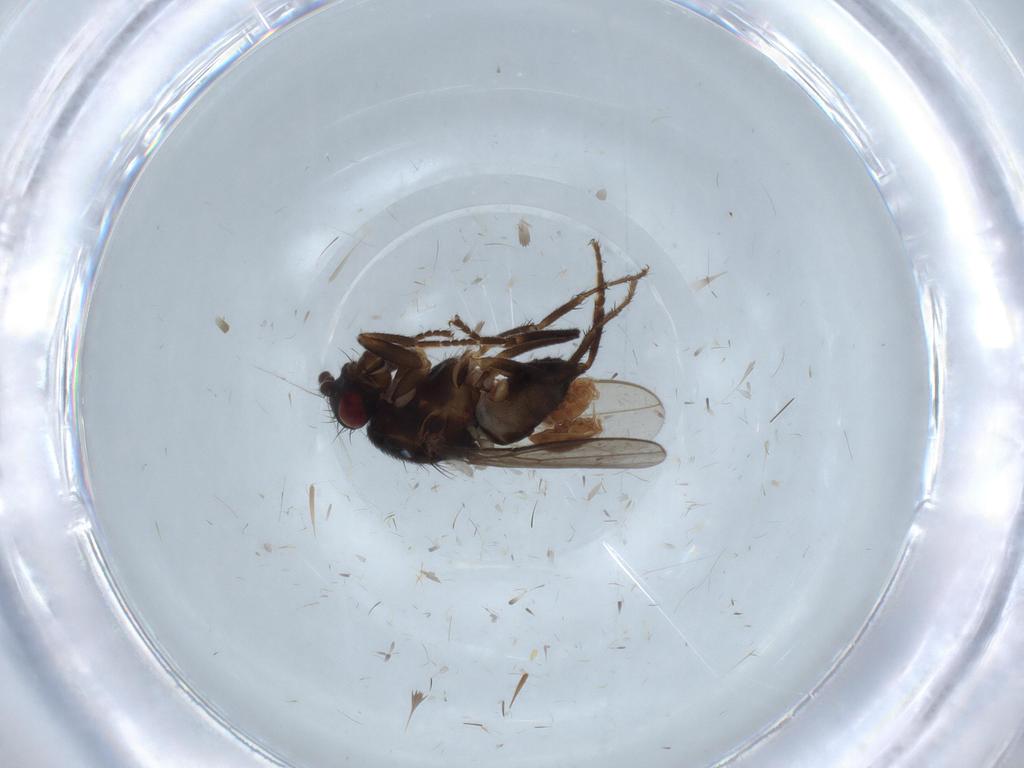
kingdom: Animalia
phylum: Arthropoda
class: Insecta
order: Diptera
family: Sphaeroceridae
